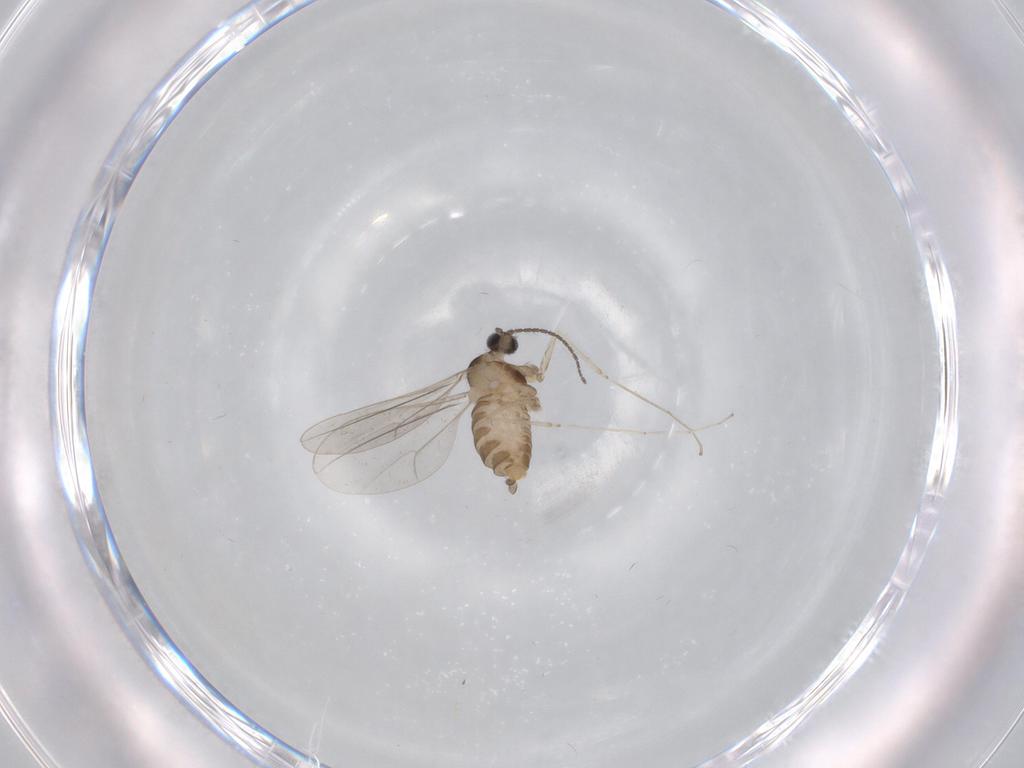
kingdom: Animalia
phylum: Arthropoda
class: Insecta
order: Diptera
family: Cecidomyiidae
